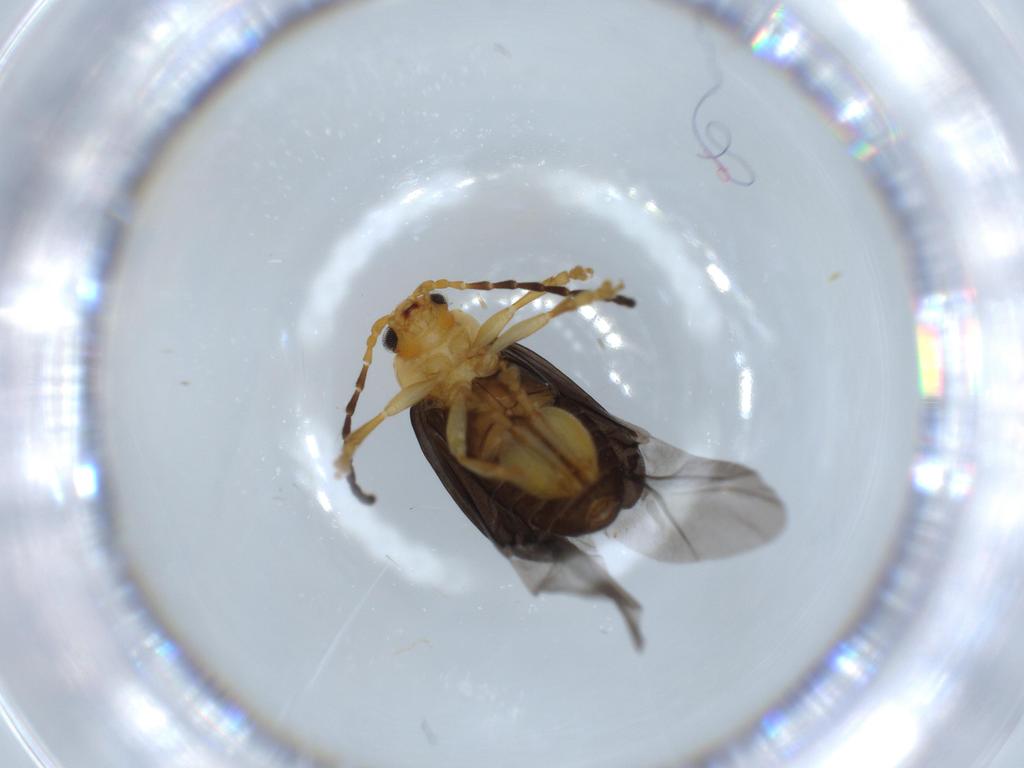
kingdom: Animalia
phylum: Arthropoda
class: Insecta
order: Coleoptera
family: Chrysomelidae
